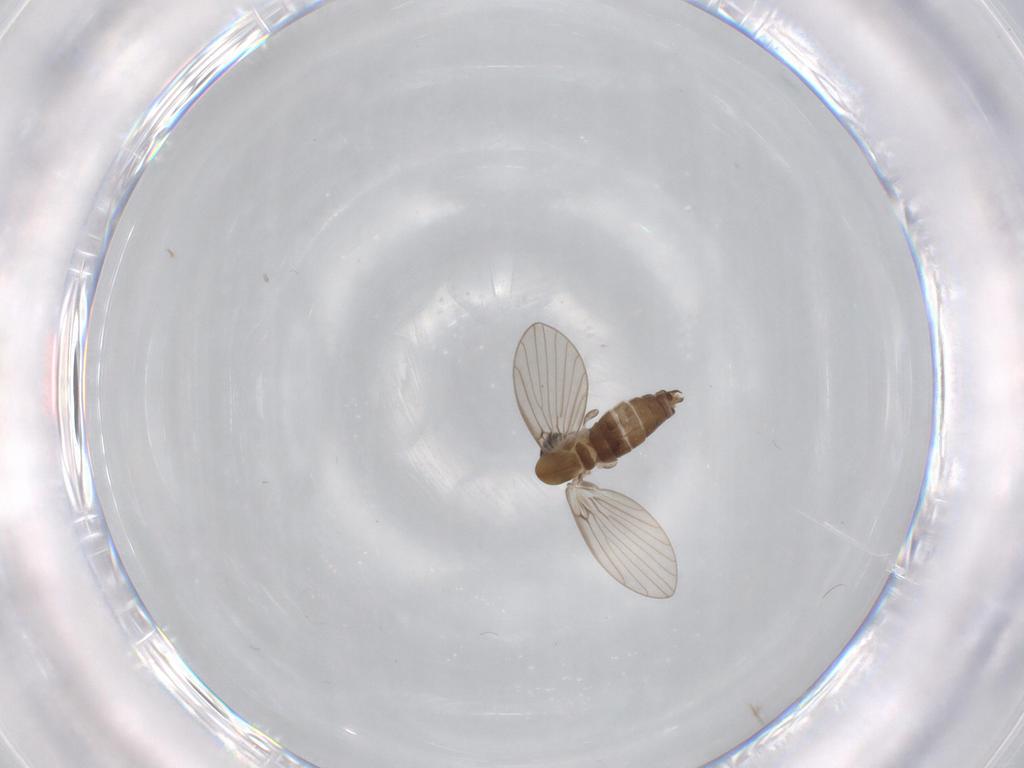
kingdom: Animalia
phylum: Arthropoda
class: Insecta
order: Diptera
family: Psychodidae
